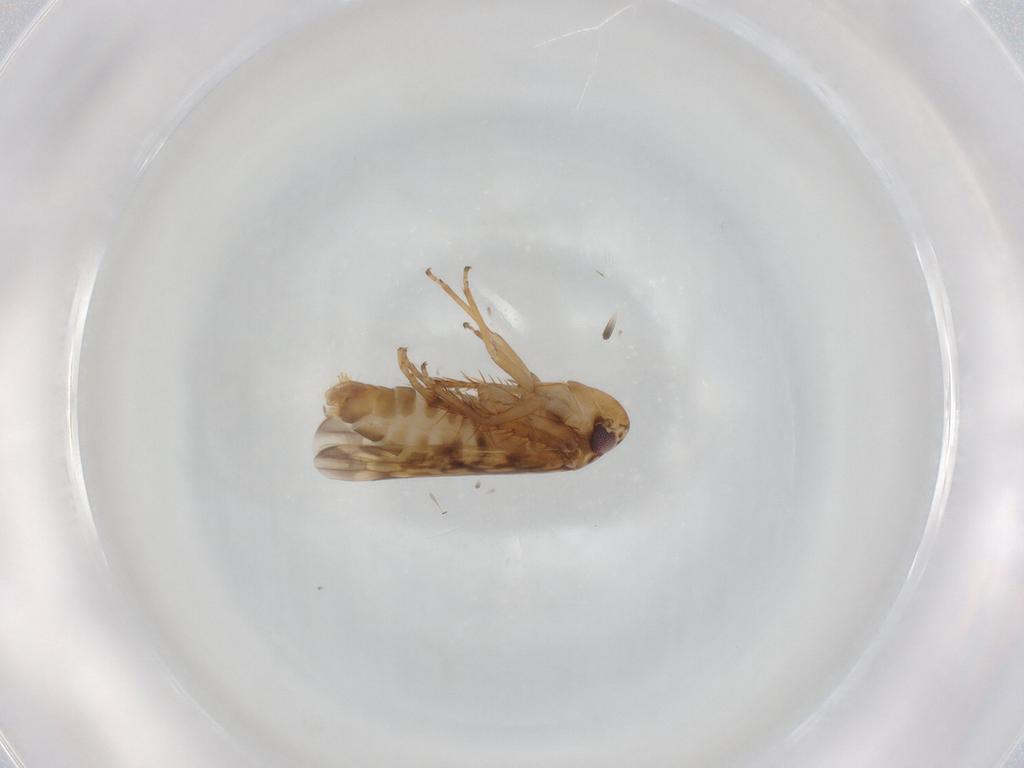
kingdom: Animalia
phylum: Arthropoda
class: Insecta
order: Hemiptera
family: Cicadellidae
